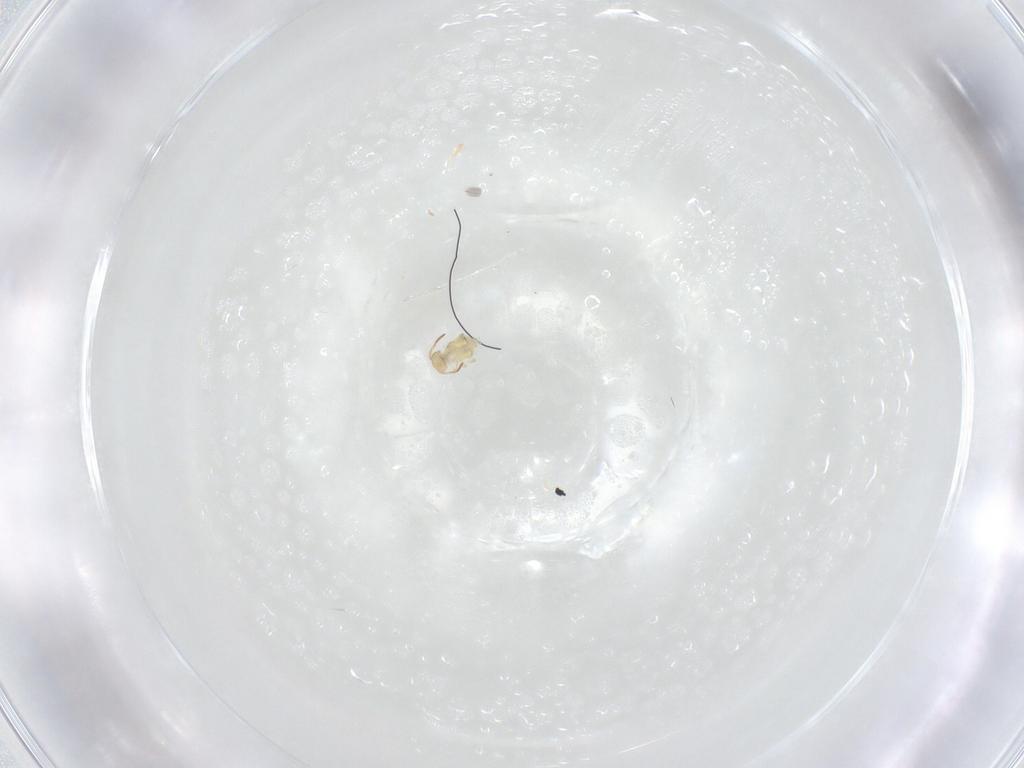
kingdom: Animalia
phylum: Arthropoda
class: Collembola
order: Symphypleona
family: Bourletiellidae
